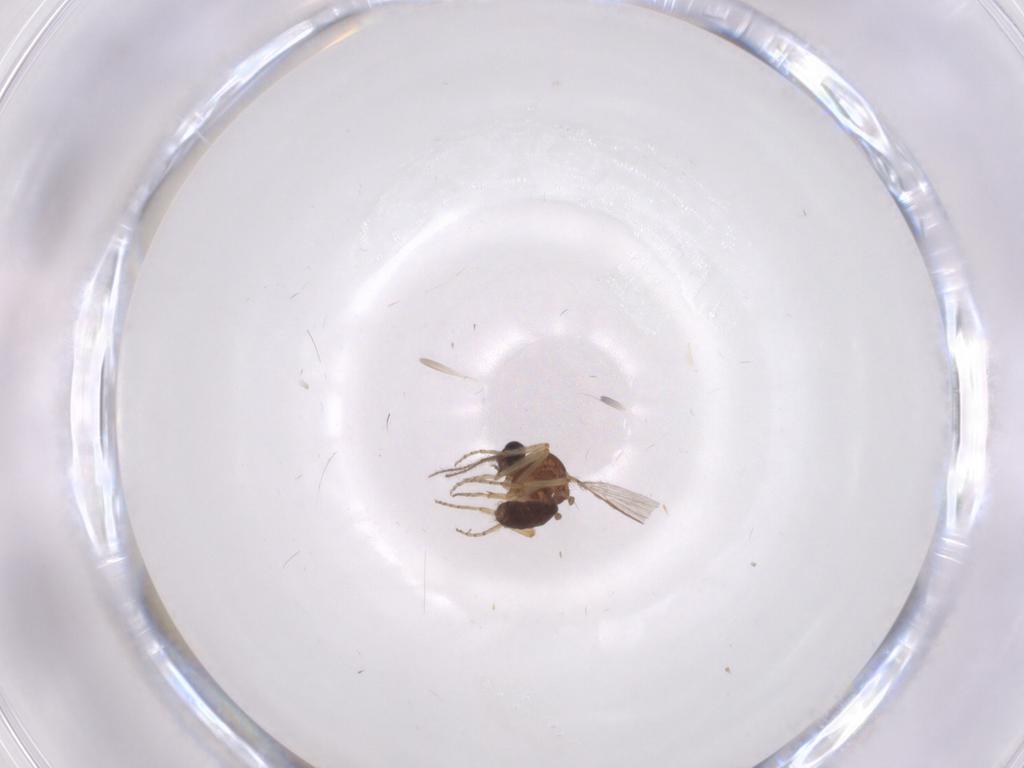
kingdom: Animalia
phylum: Arthropoda
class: Insecta
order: Diptera
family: Ceratopogonidae
